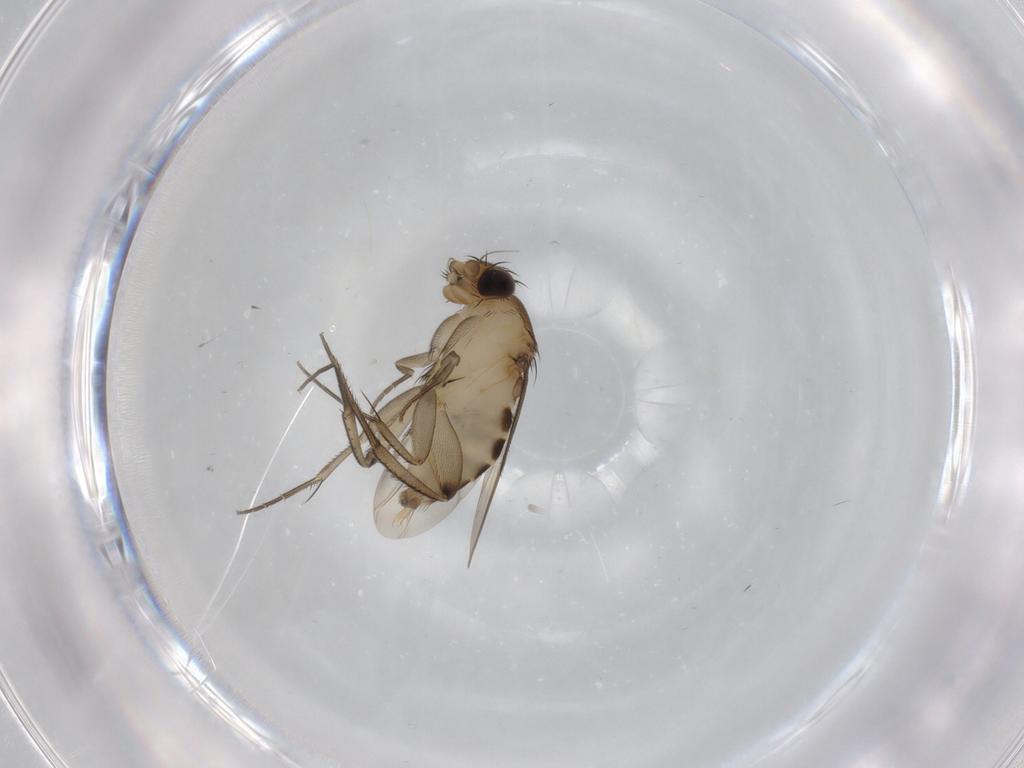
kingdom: Animalia
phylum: Arthropoda
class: Insecta
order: Diptera
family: Phoridae
